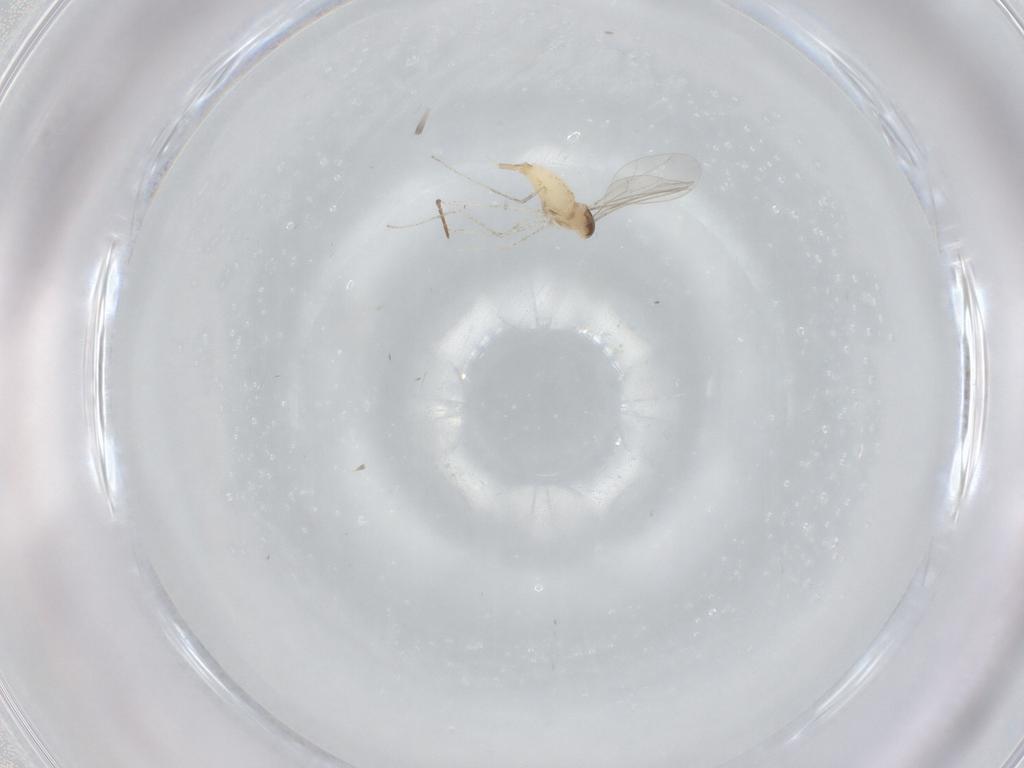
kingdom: Animalia
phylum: Arthropoda
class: Insecta
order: Diptera
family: Cecidomyiidae
